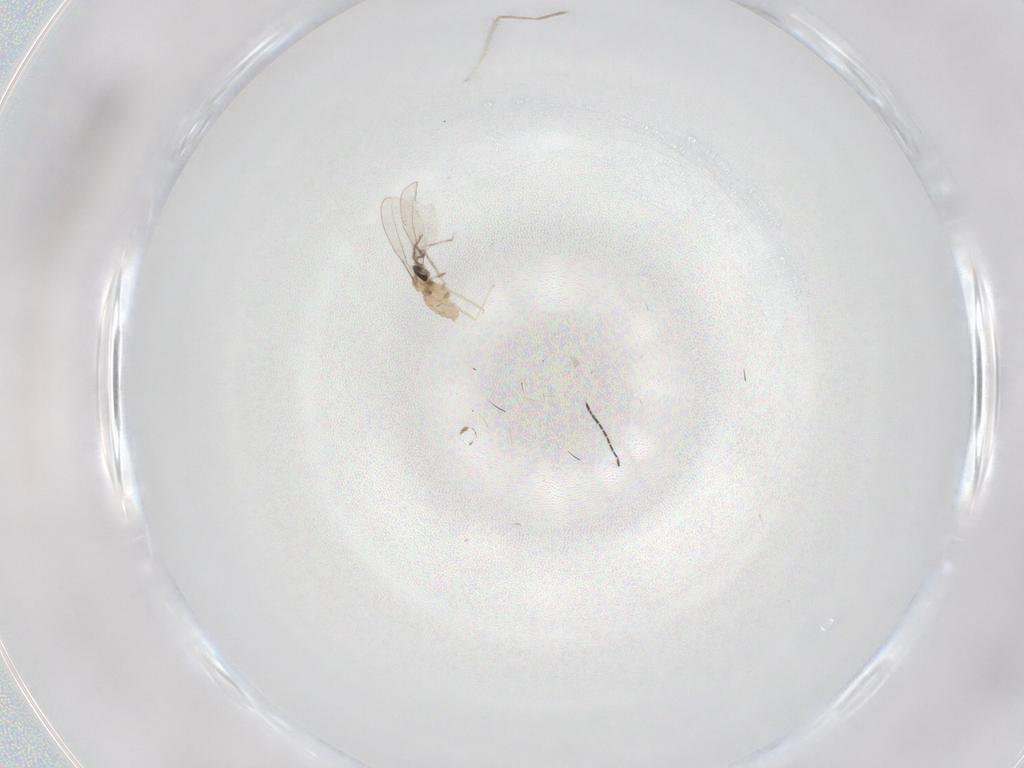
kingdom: Animalia
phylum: Arthropoda
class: Insecta
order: Diptera
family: Cecidomyiidae
